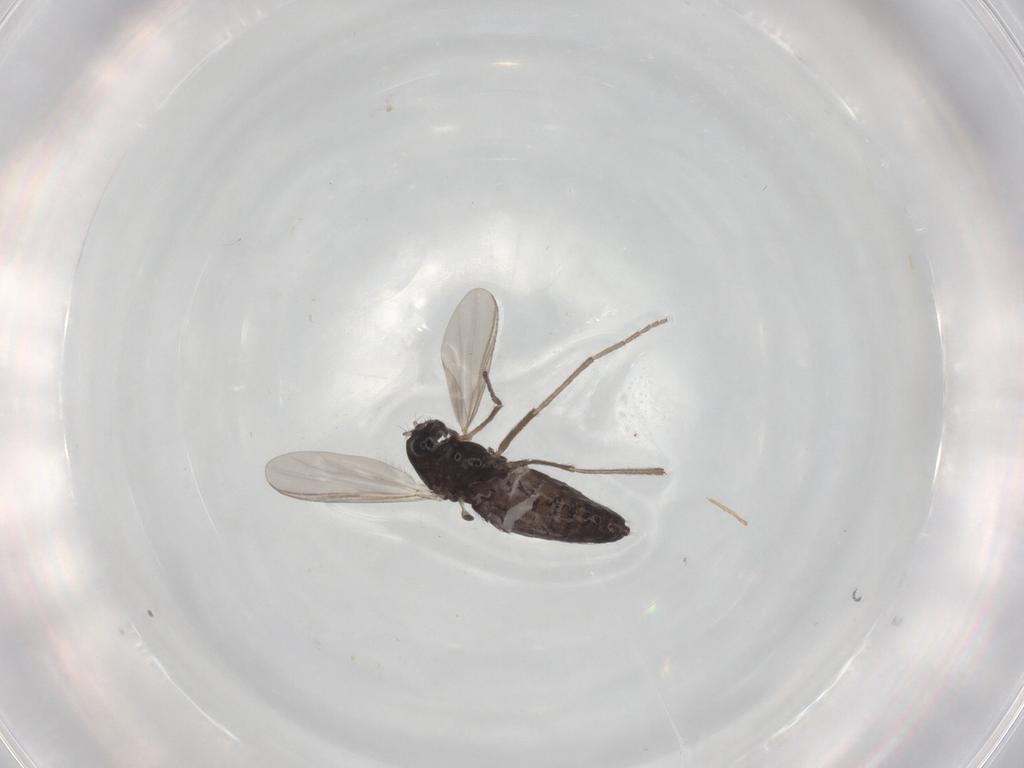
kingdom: Animalia
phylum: Arthropoda
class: Insecta
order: Diptera
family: Chironomidae
